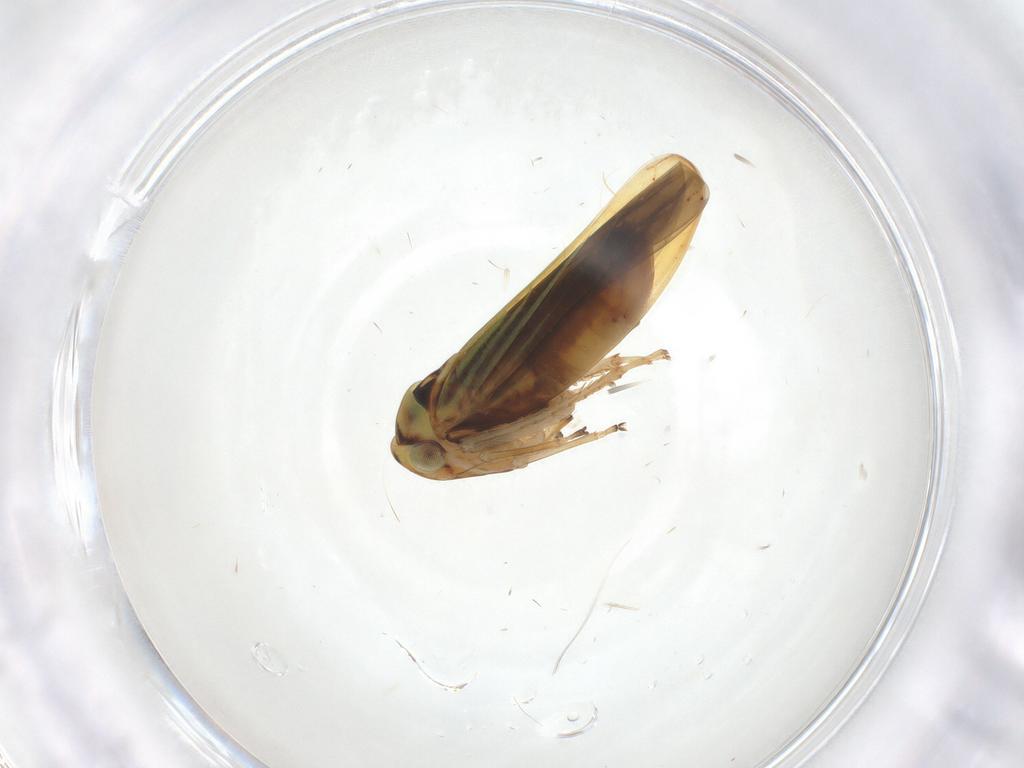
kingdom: Animalia
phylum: Arthropoda
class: Insecta
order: Hemiptera
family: Cicadellidae
